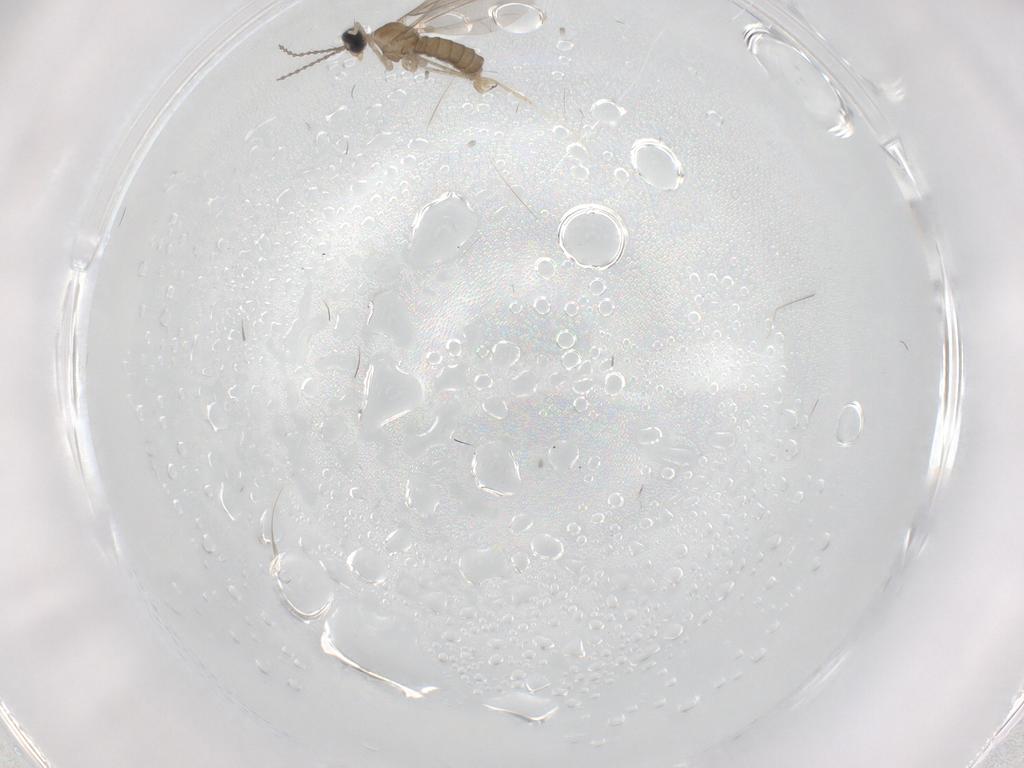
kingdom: Animalia
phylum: Arthropoda
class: Insecta
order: Diptera
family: Cecidomyiidae
